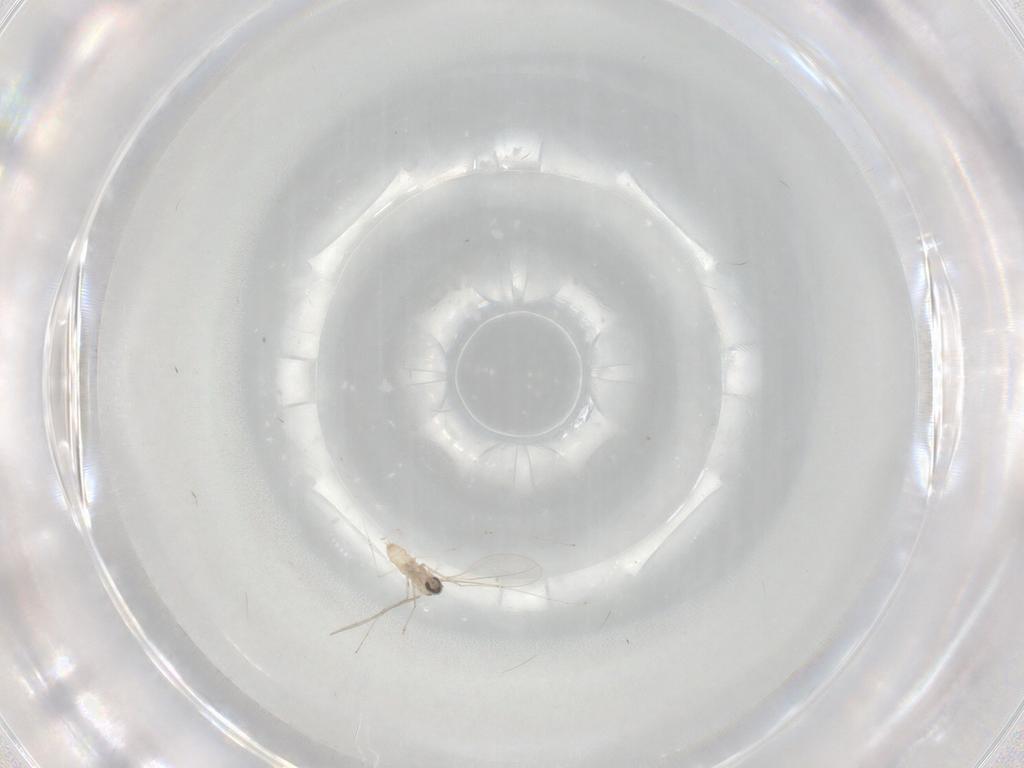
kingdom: Animalia
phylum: Arthropoda
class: Insecta
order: Diptera
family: Cecidomyiidae
